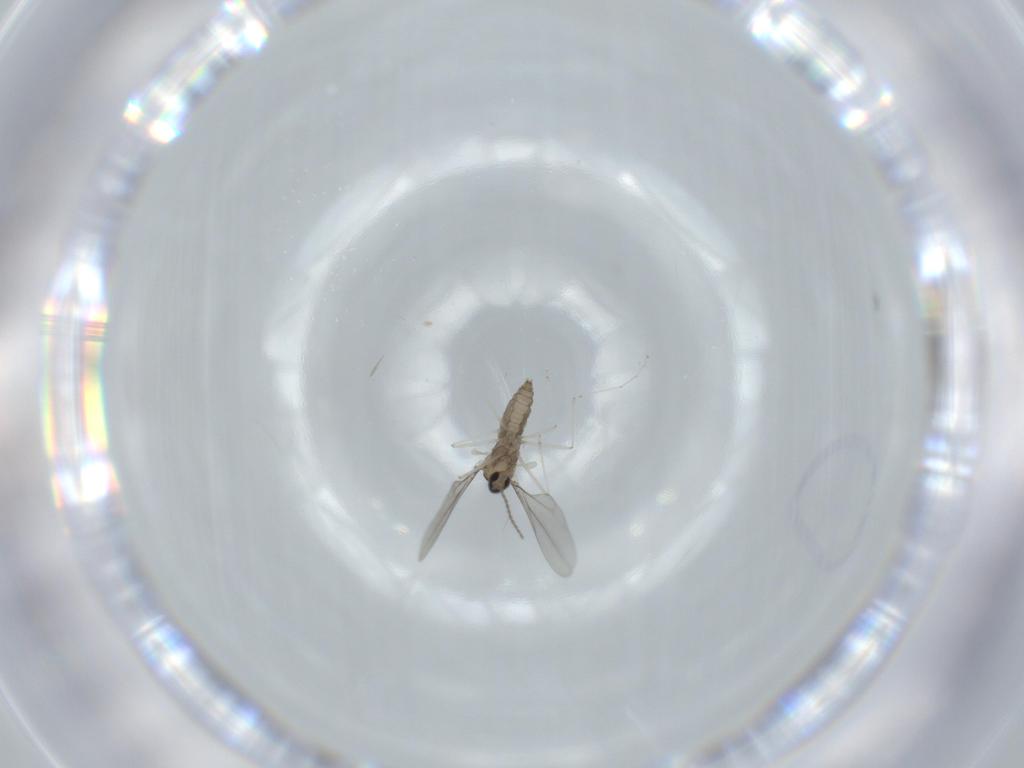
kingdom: Animalia
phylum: Arthropoda
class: Insecta
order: Diptera
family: Cecidomyiidae
